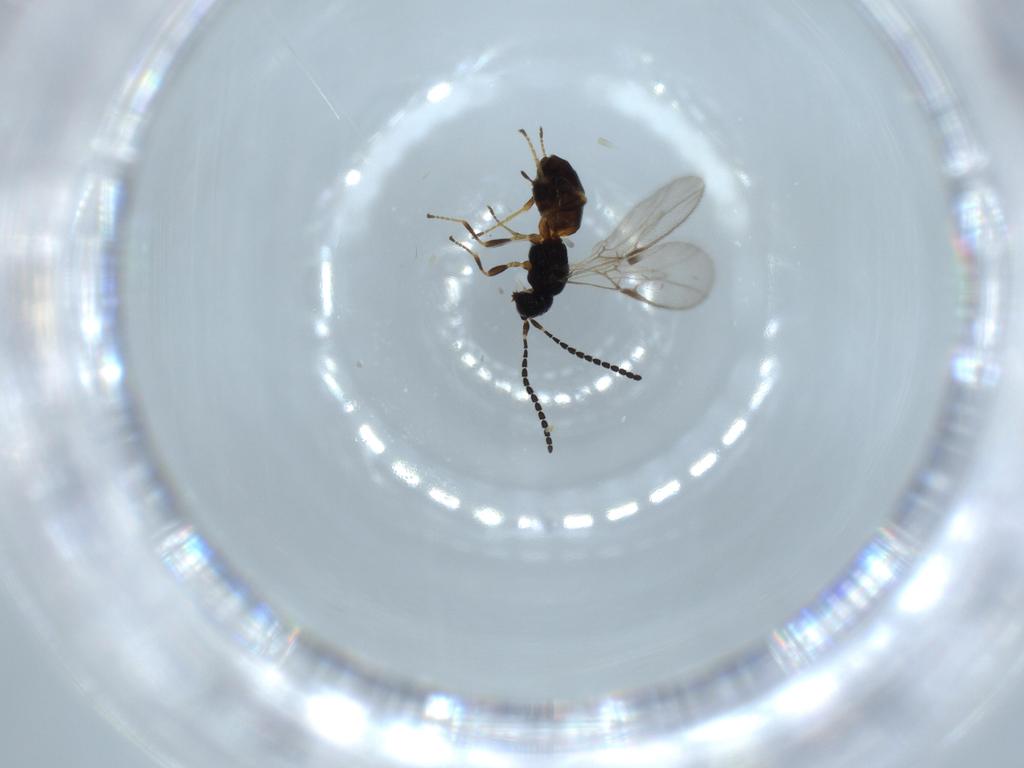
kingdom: Animalia
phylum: Arthropoda
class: Insecta
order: Hymenoptera
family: Braconidae
